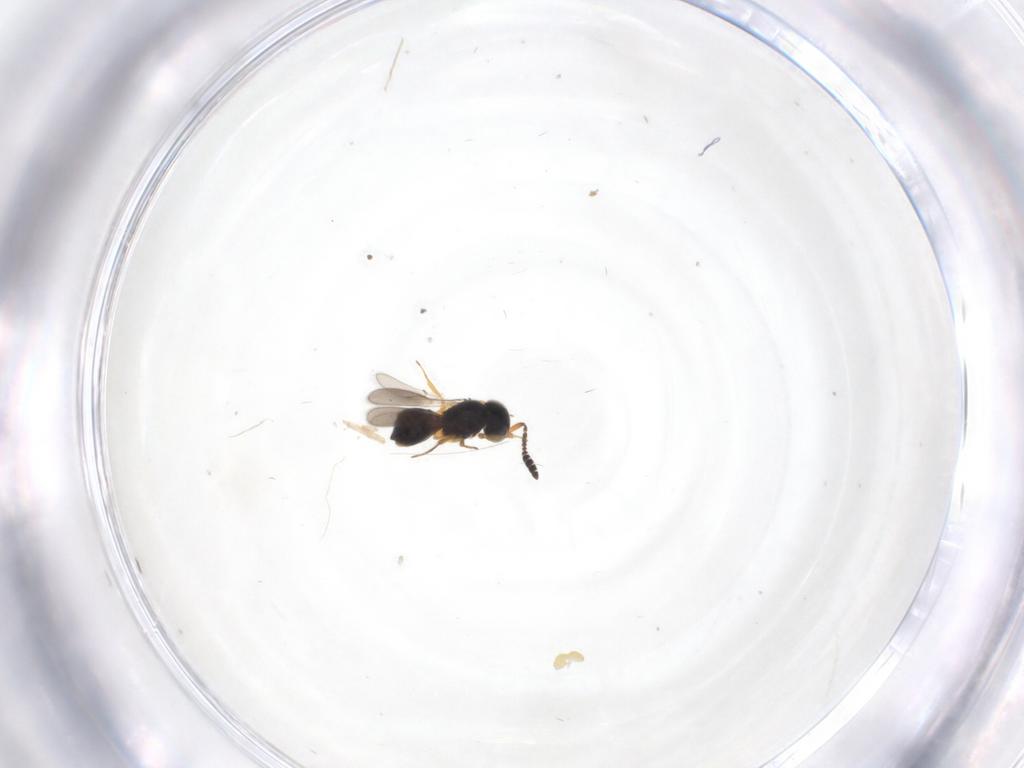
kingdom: Animalia
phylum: Arthropoda
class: Insecta
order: Hymenoptera
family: Scelionidae
